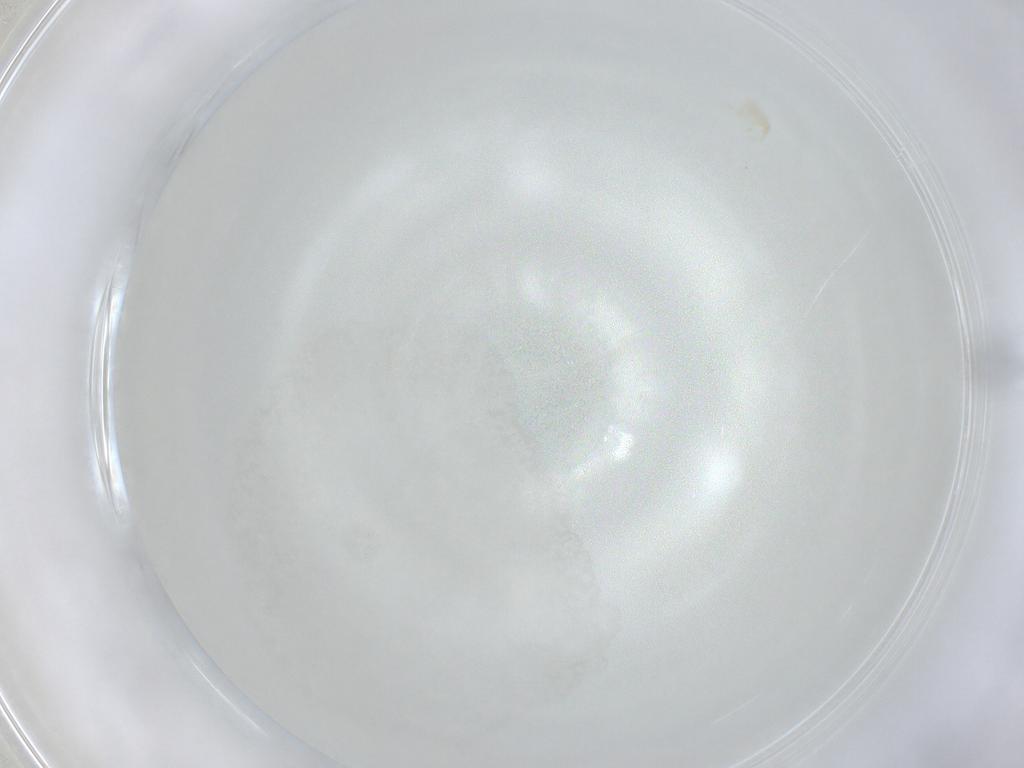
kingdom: Animalia
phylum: Arthropoda
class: Arachnida
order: Trombidiformes
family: Erythraeidae
